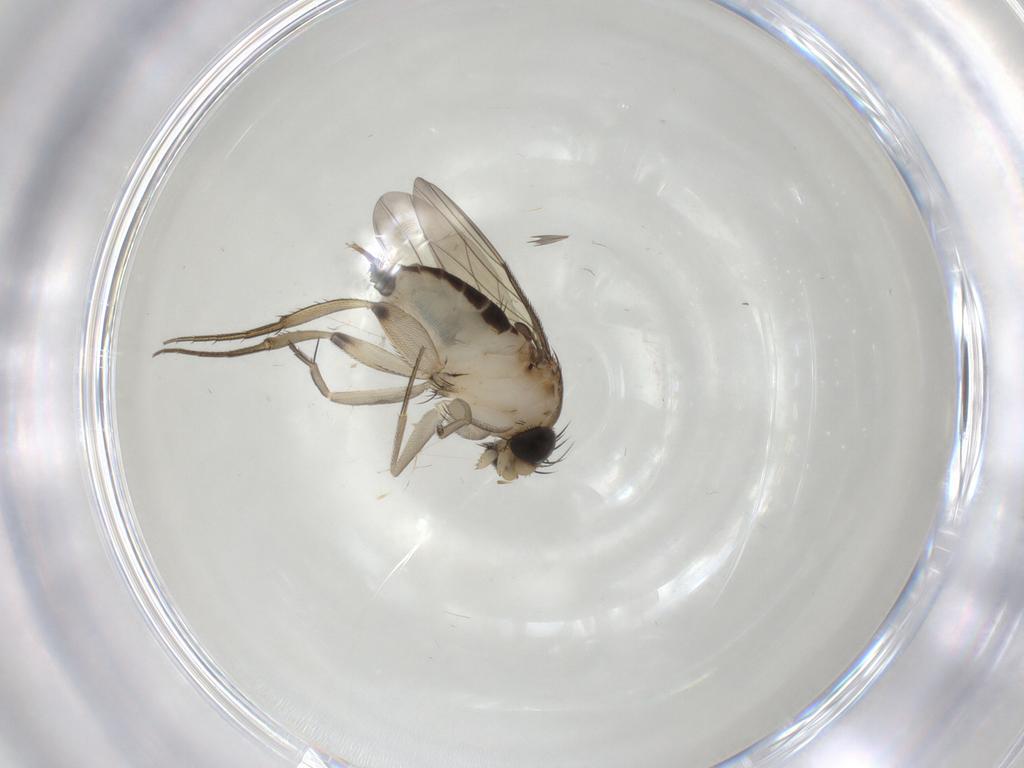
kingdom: Animalia
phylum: Arthropoda
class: Insecta
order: Diptera
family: Phoridae
